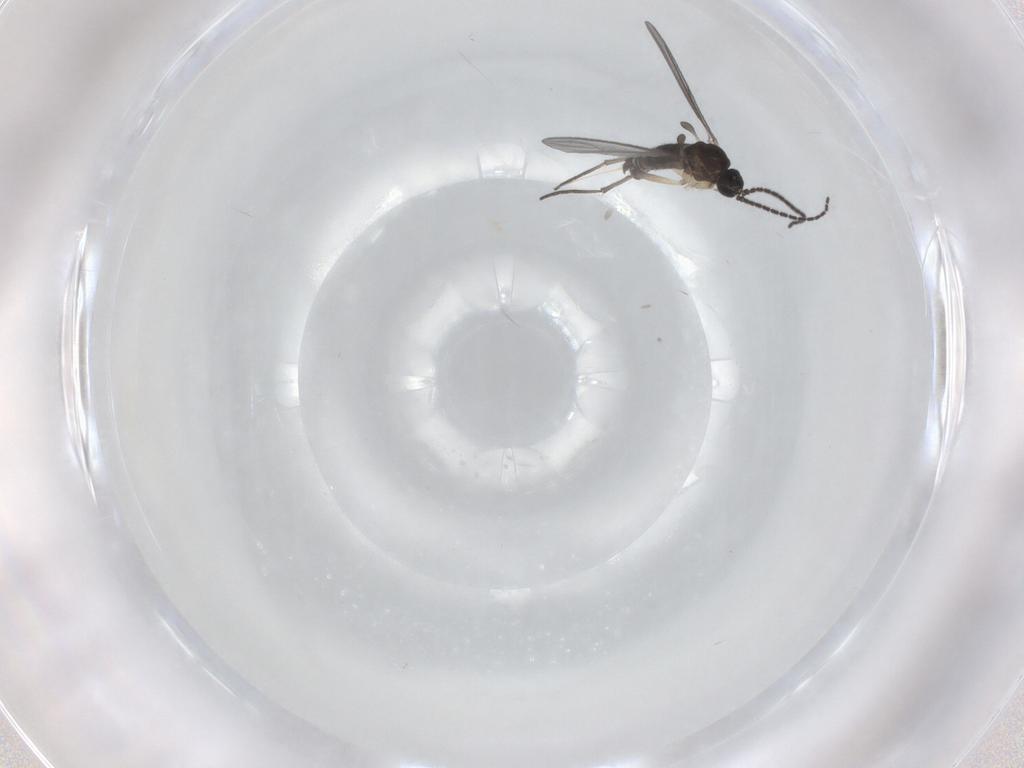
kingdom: Animalia
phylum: Arthropoda
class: Insecta
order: Diptera
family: Sciaridae
